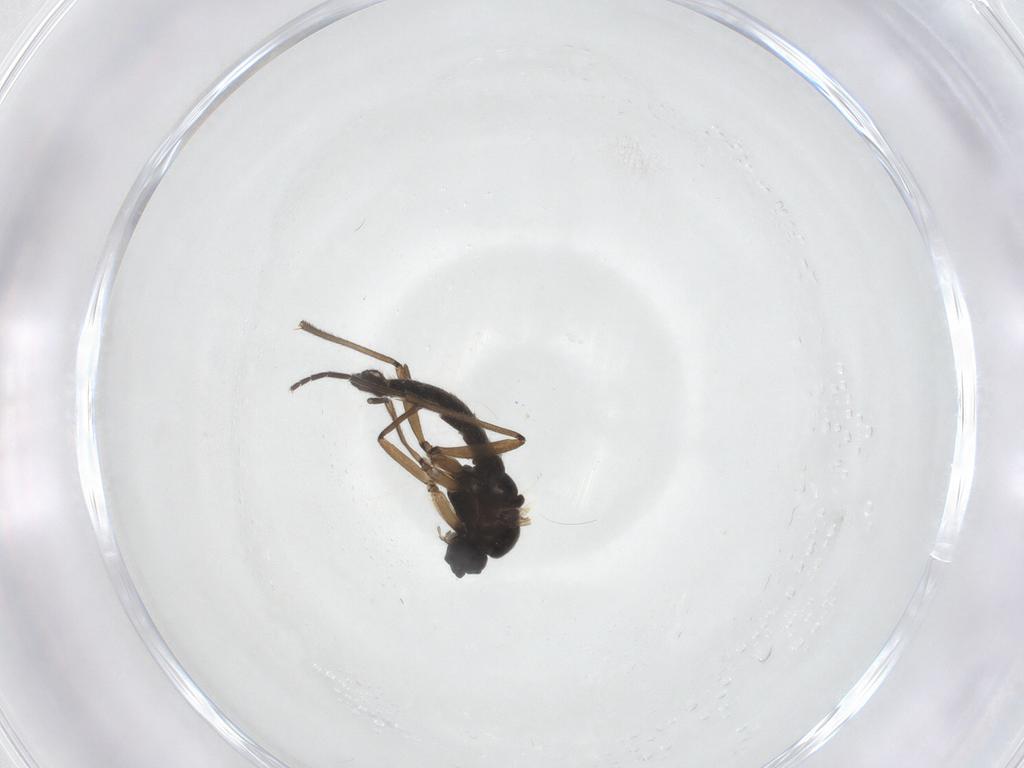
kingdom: Animalia
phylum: Arthropoda
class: Insecta
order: Diptera
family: Sciaridae
